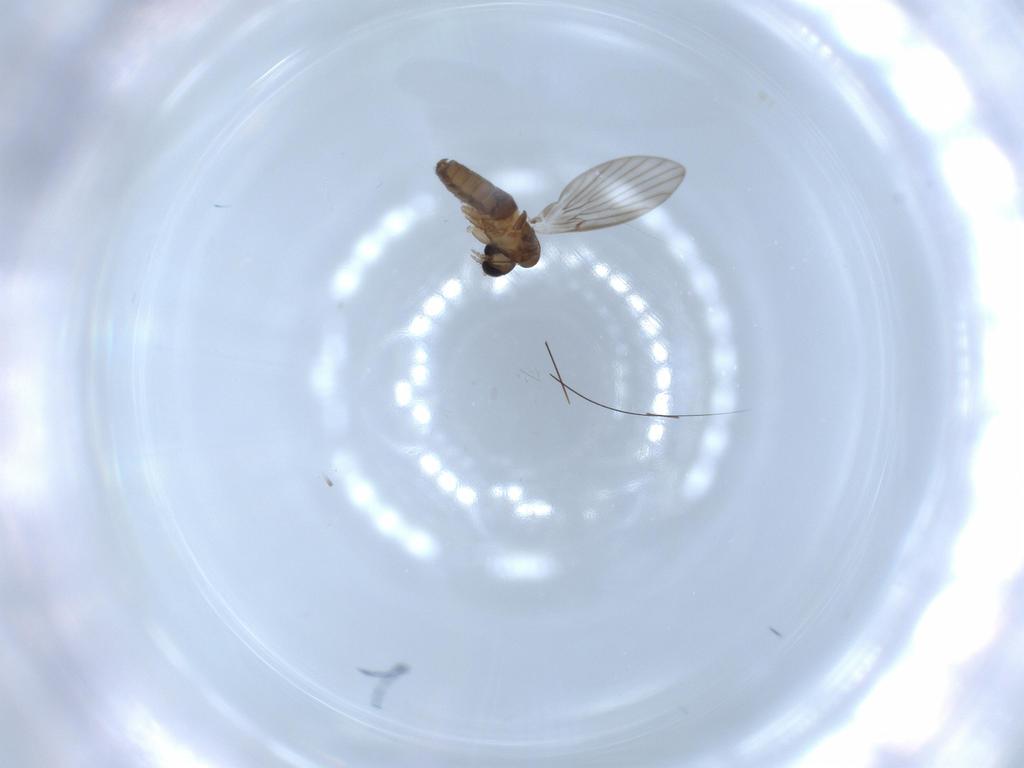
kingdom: Animalia
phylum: Arthropoda
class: Insecta
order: Diptera
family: Psychodidae
